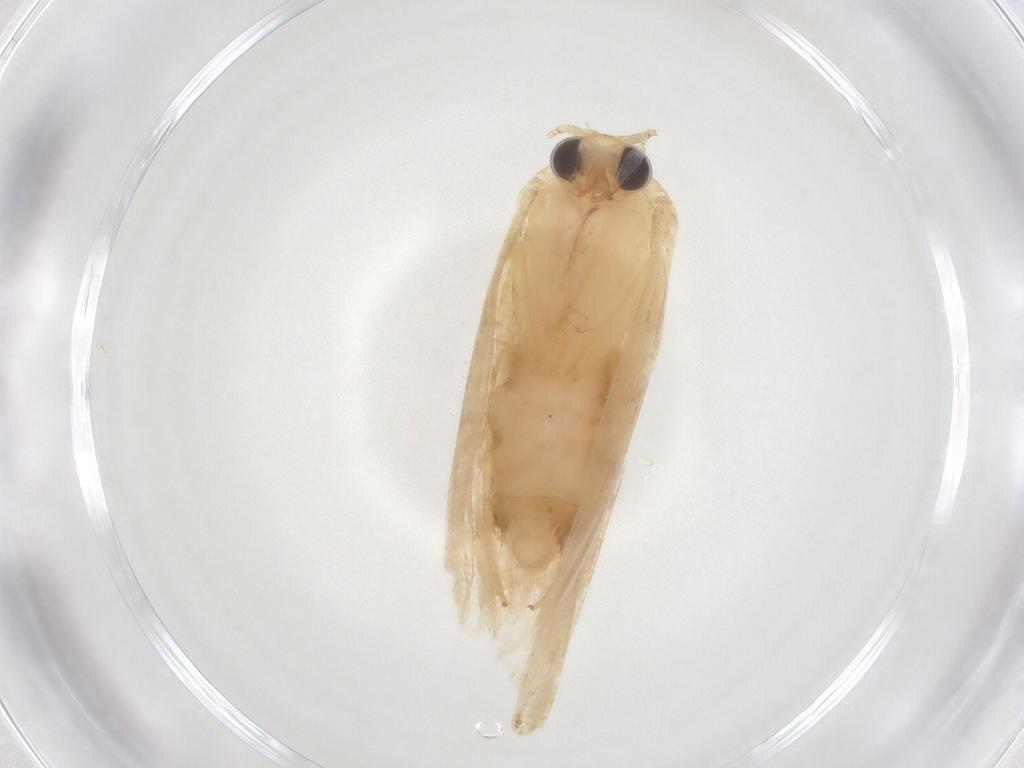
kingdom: Animalia
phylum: Arthropoda
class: Insecta
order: Lepidoptera
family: Noctuidae
